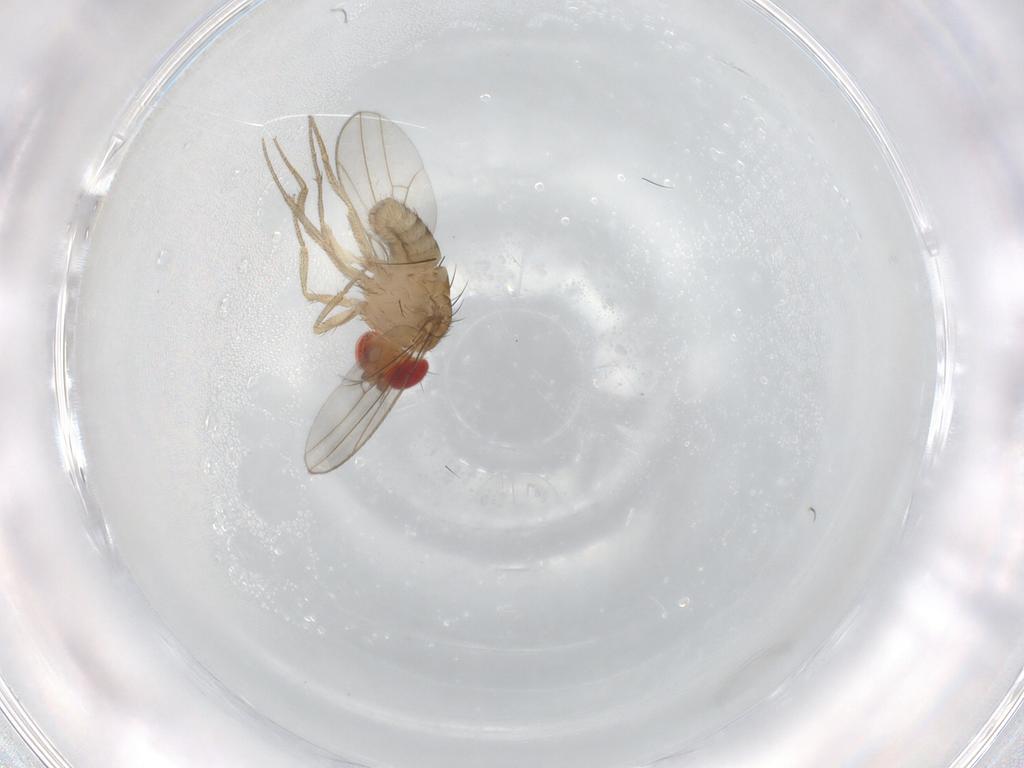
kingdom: Animalia
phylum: Arthropoda
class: Insecta
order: Diptera
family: Drosophilidae
